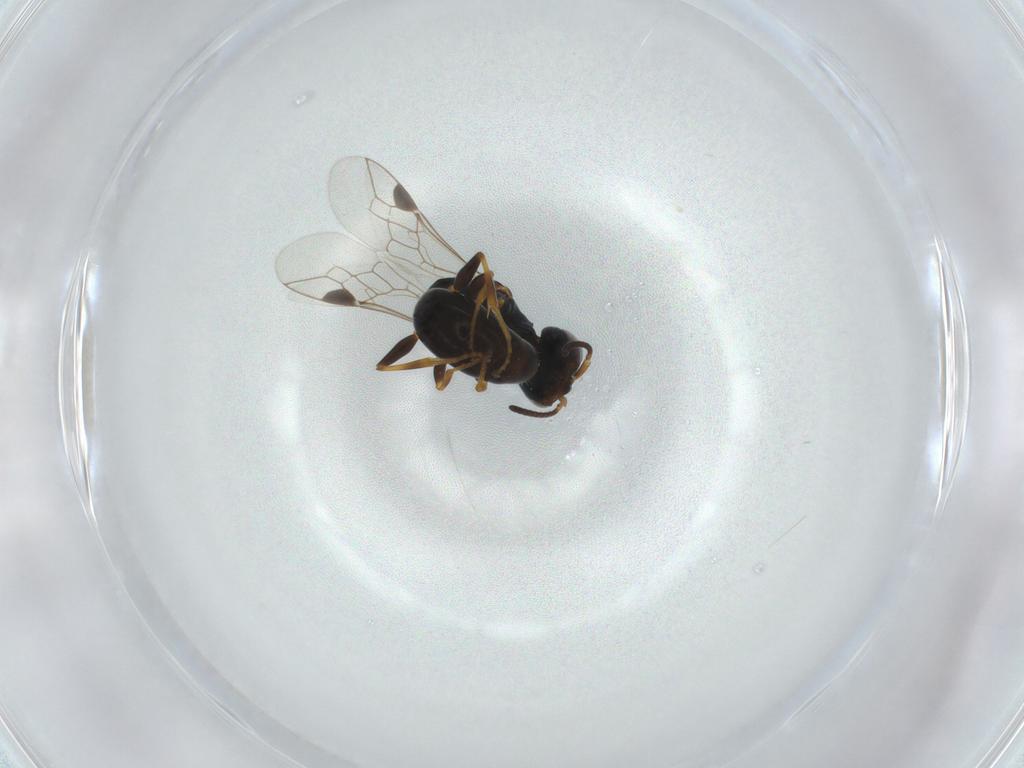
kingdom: Animalia
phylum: Arthropoda
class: Insecta
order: Hymenoptera
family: Pemphredonidae
